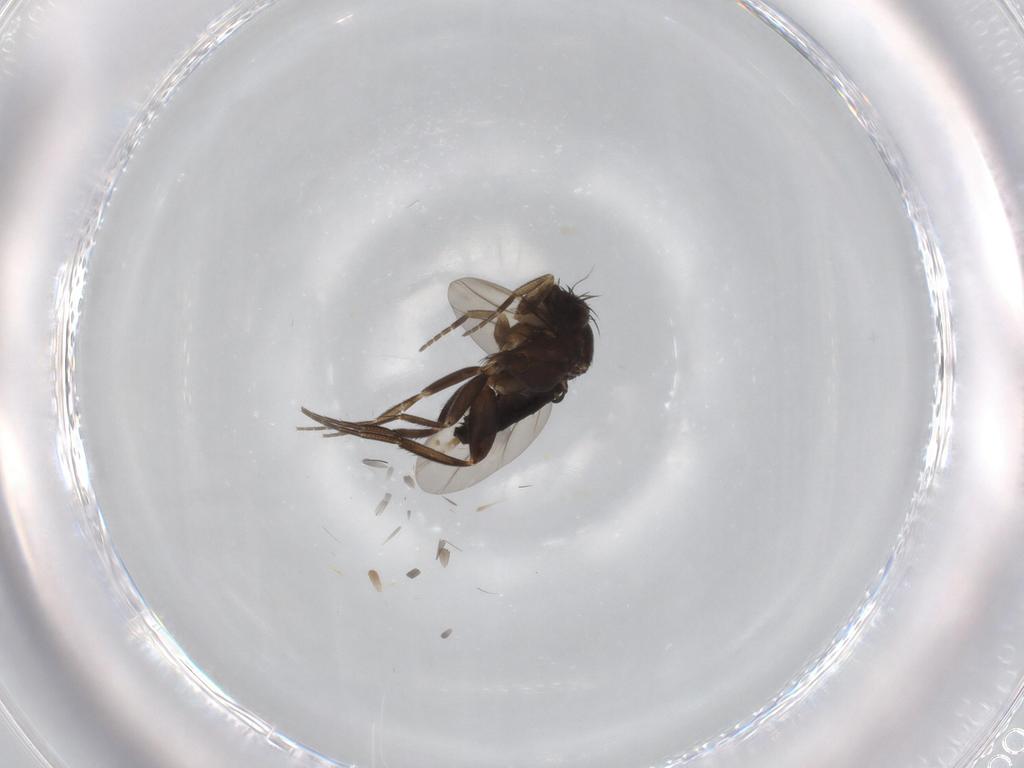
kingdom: Animalia
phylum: Arthropoda
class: Insecta
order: Diptera
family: Phoridae
